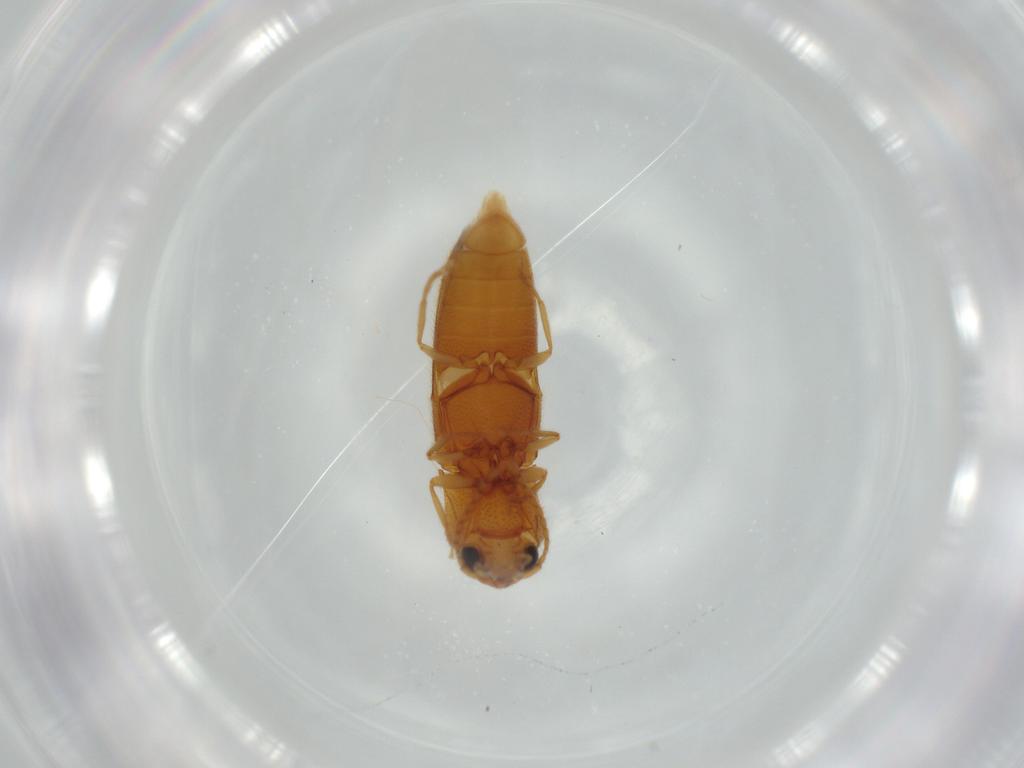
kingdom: Animalia
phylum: Arthropoda
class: Insecta
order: Coleoptera
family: Elateridae
